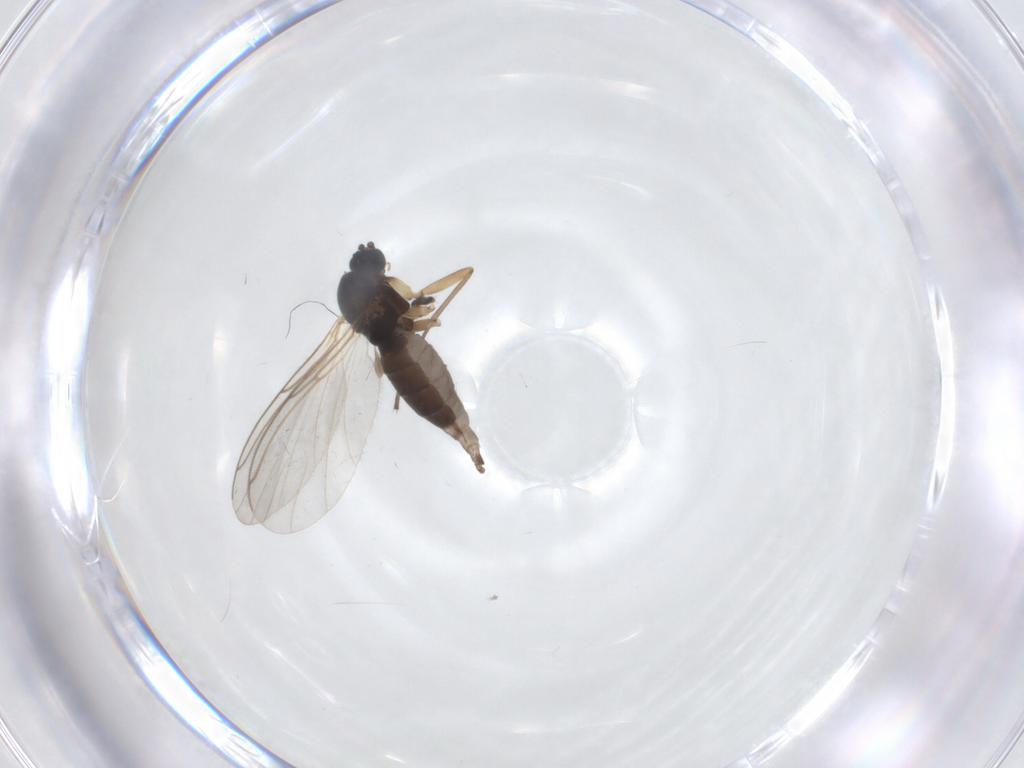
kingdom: Animalia
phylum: Arthropoda
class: Insecta
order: Diptera
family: Sciaridae
